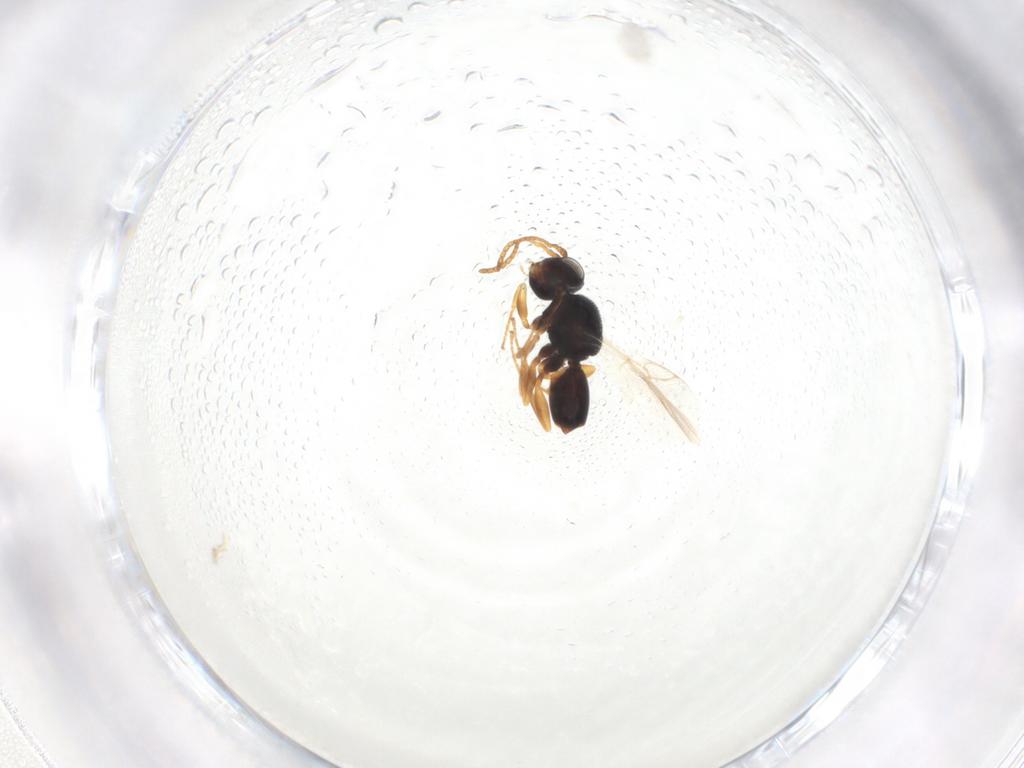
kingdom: Animalia
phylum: Arthropoda
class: Insecta
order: Hymenoptera
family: Cynipidae
